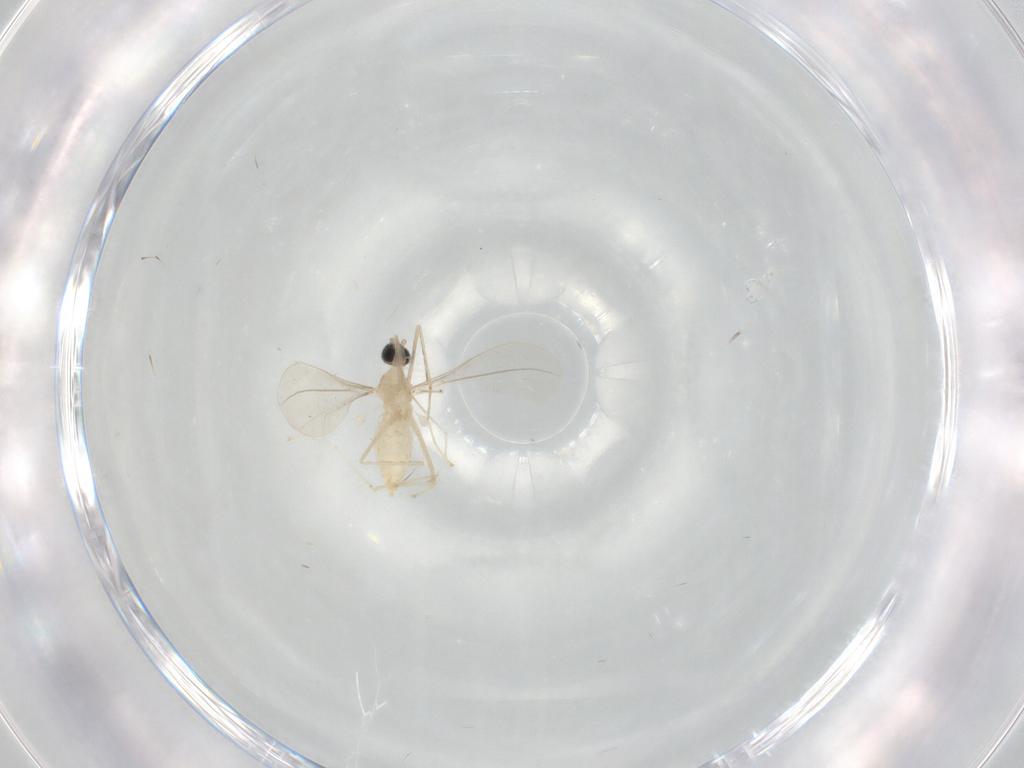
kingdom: Animalia
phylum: Arthropoda
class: Insecta
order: Diptera
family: Cecidomyiidae
